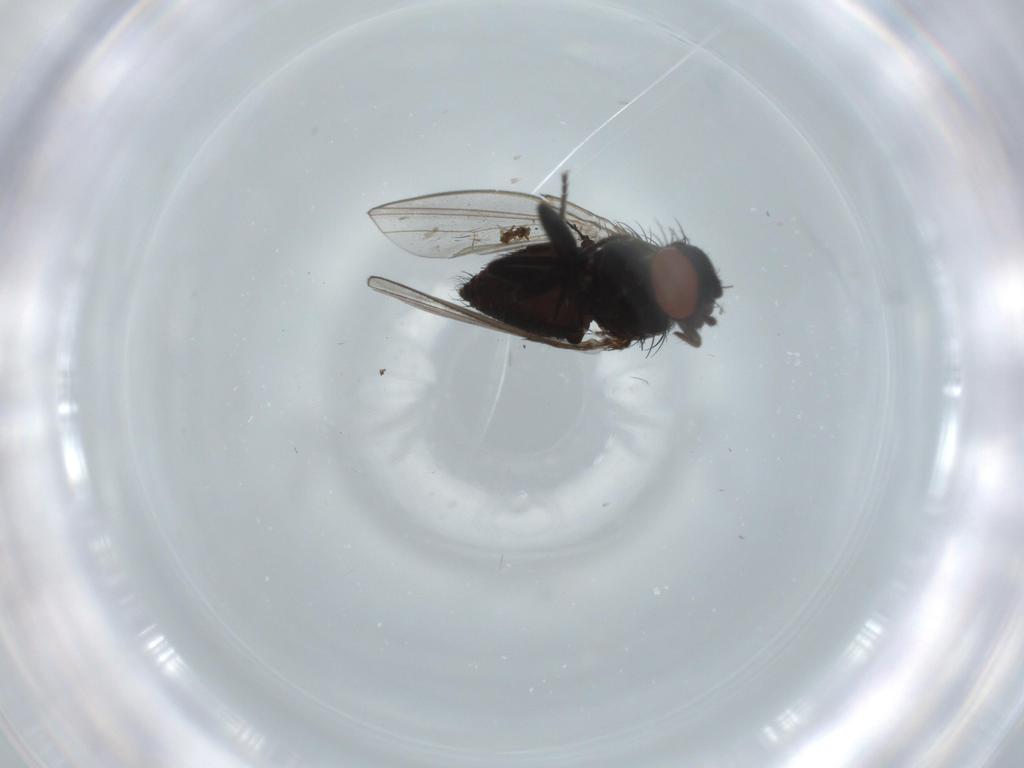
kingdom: Animalia
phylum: Arthropoda
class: Insecta
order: Diptera
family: Milichiidae
